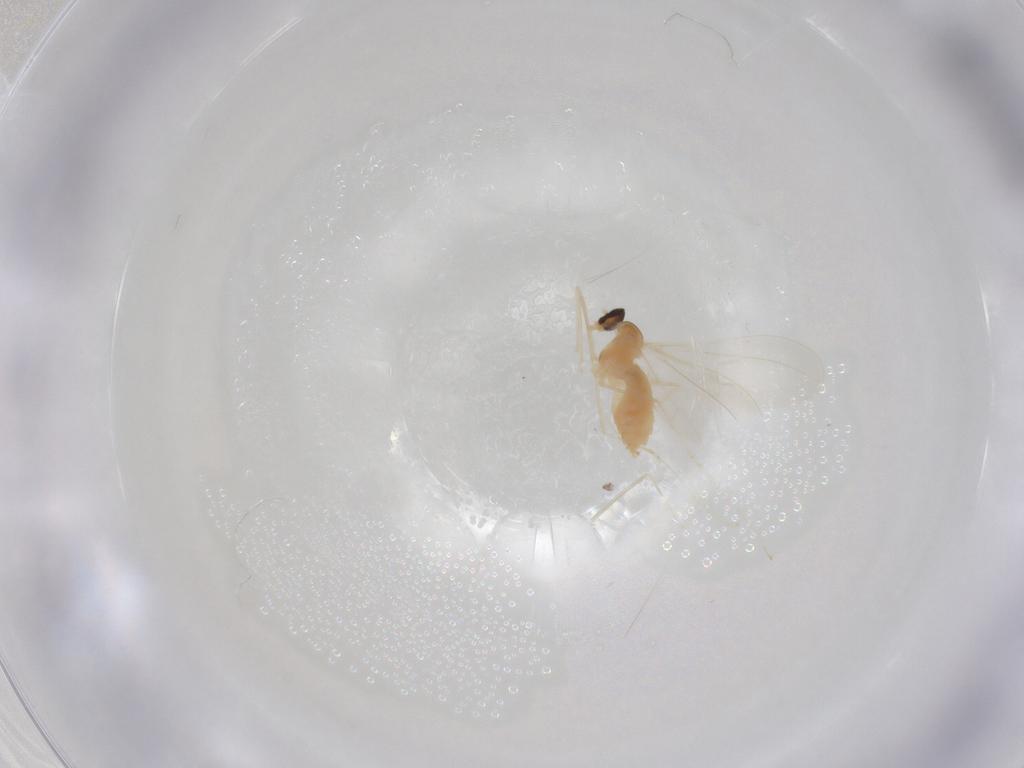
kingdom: Animalia
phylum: Arthropoda
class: Insecta
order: Diptera
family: Cecidomyiidae
